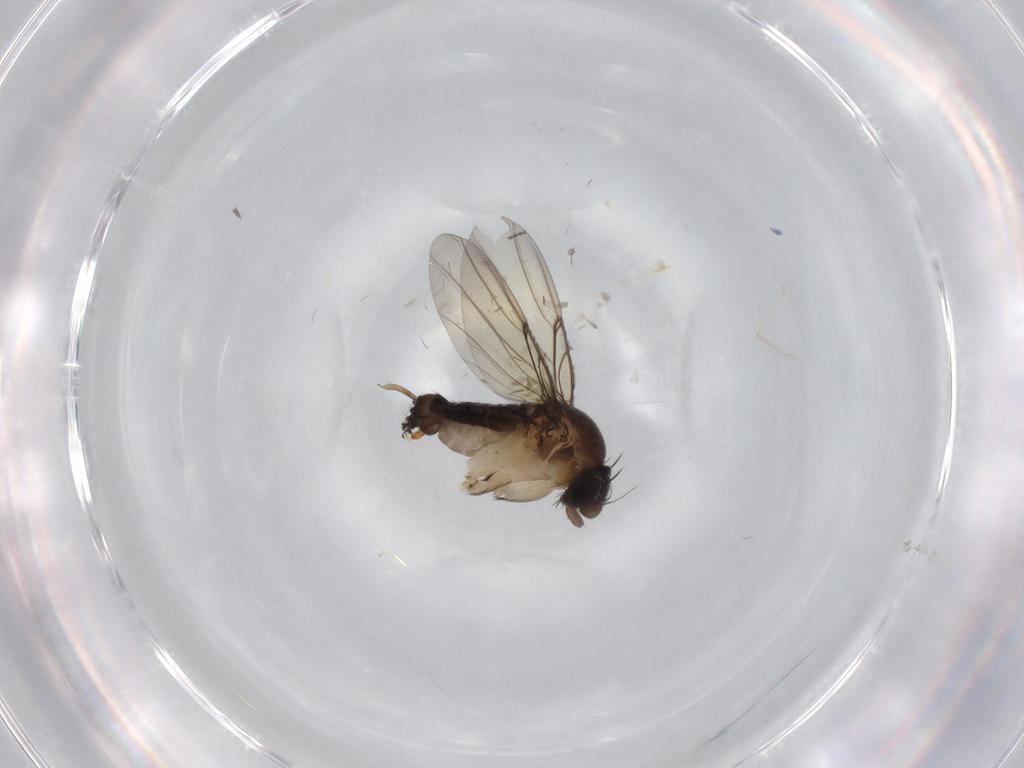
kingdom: Animalia
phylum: Arthropoda
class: Insecta
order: Diptera
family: Phoridae
